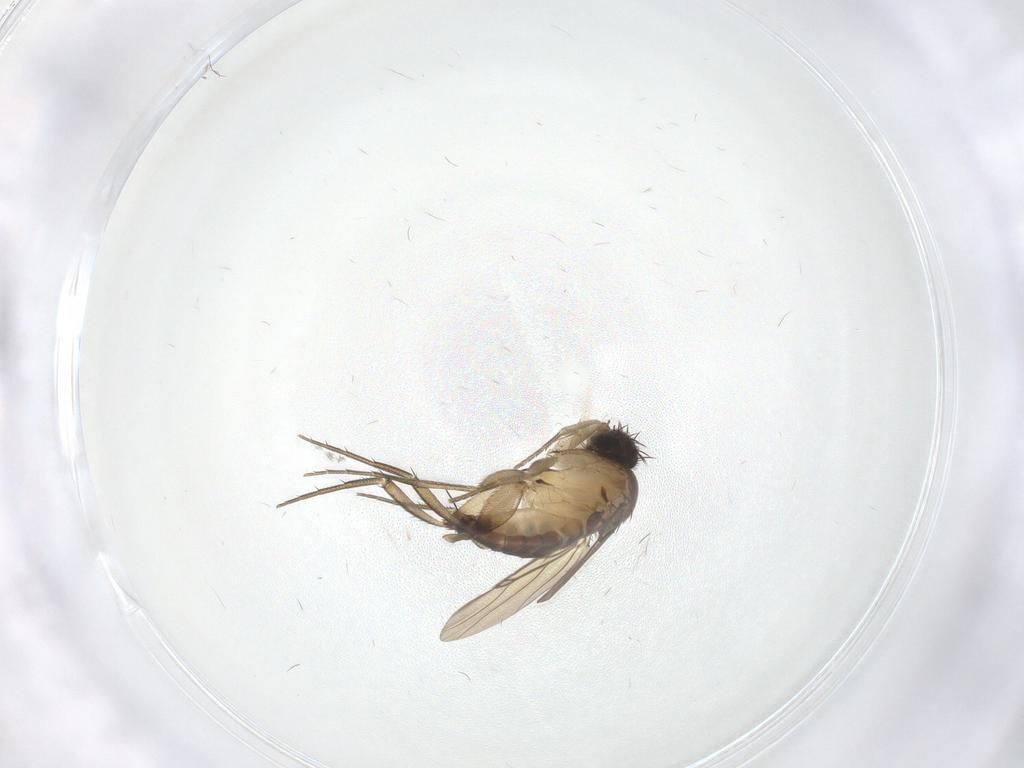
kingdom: Animalia
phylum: Arthropoda
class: Insecta
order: Diptera
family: Phoridae
